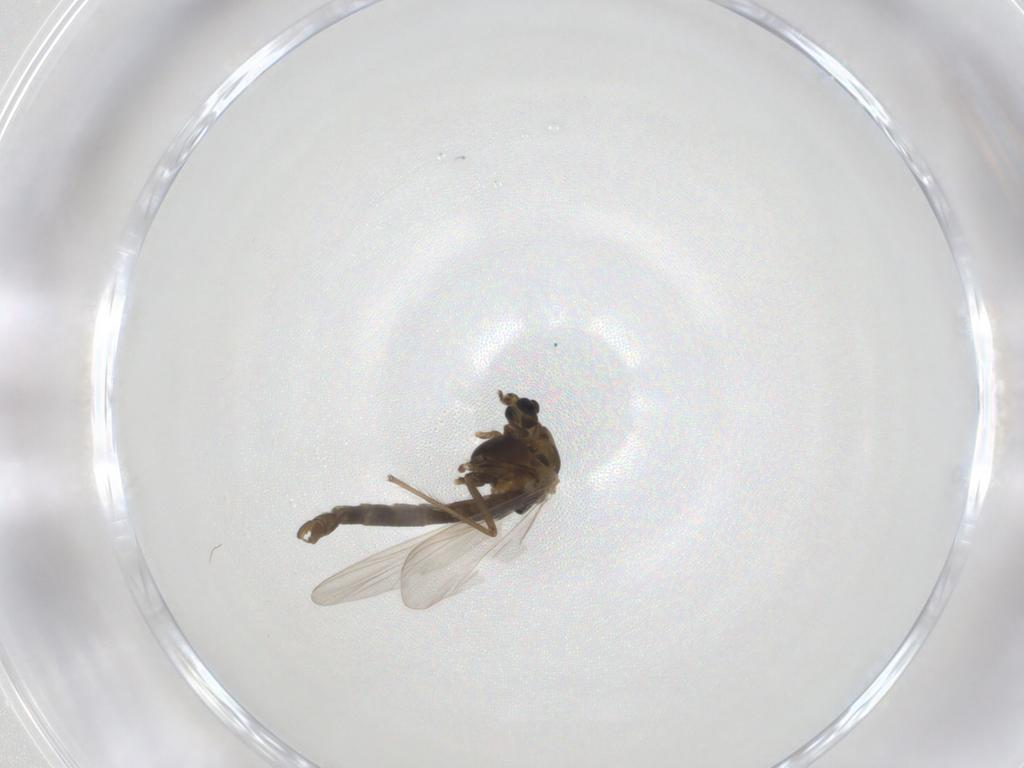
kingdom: Animalia
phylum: Arthropoda
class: Insecta
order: Diptera
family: Chironomidae
